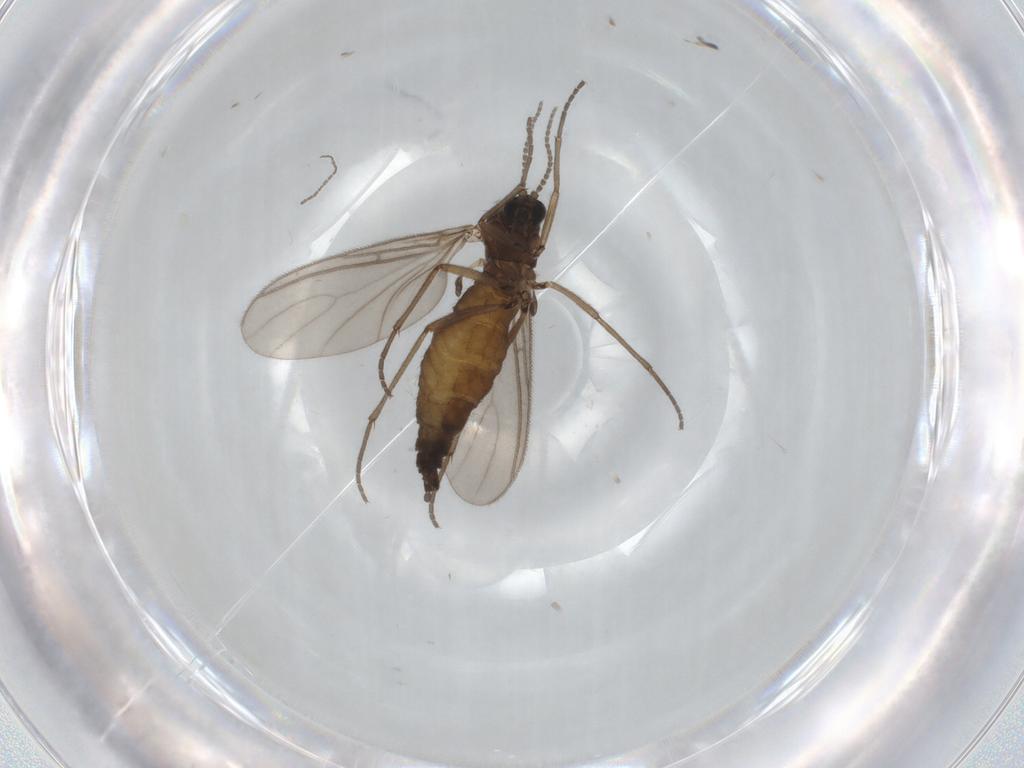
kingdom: Animalia
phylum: Arthropoda
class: Insecta
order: Diptera
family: Sciaridae
